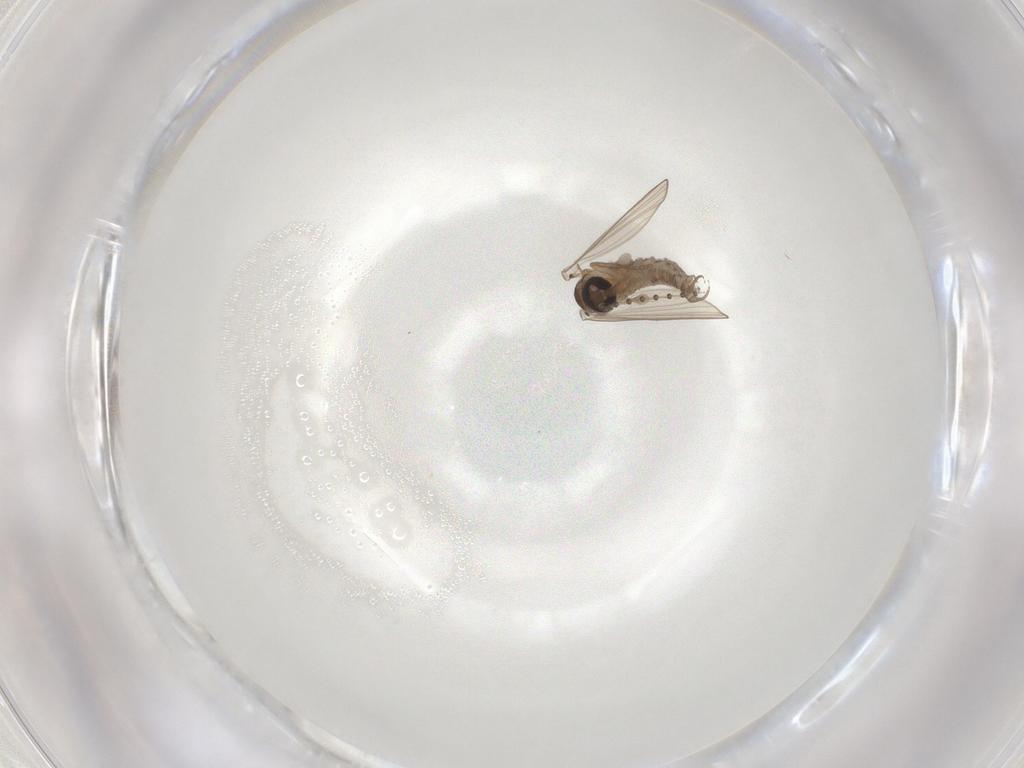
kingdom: Animalia
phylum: Arthropoda
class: Insecta
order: Diptera
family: Psychodidae
